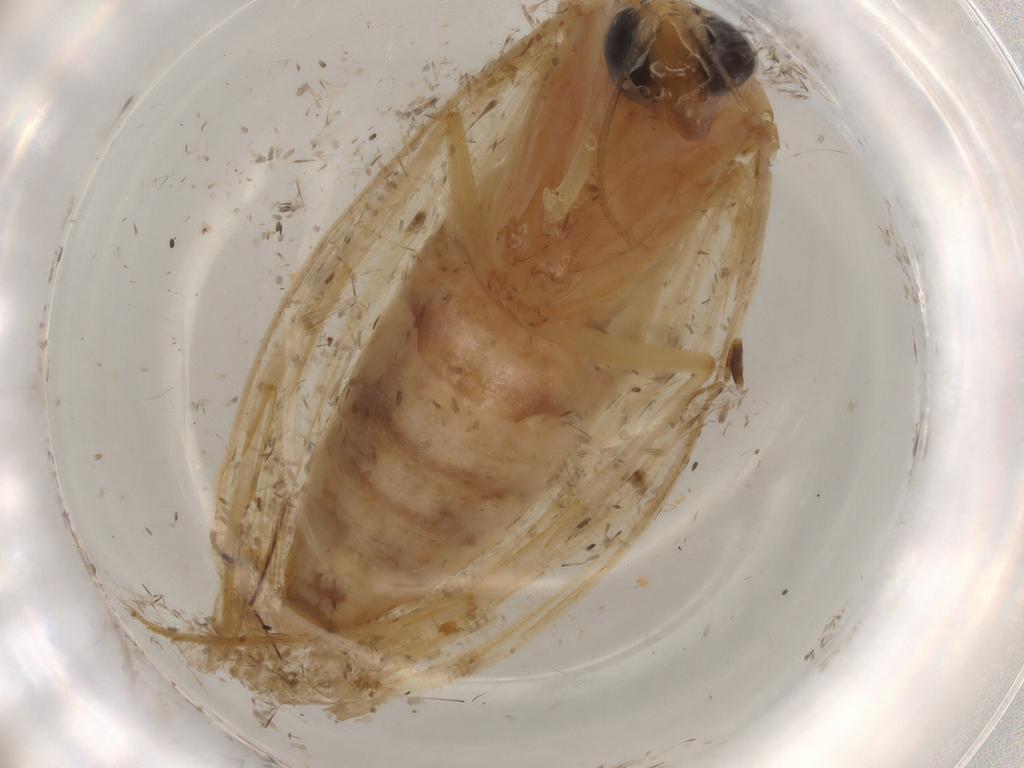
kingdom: Animalia
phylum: Arthropoda
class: Insecta
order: Lepidoptera
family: Erebidae
